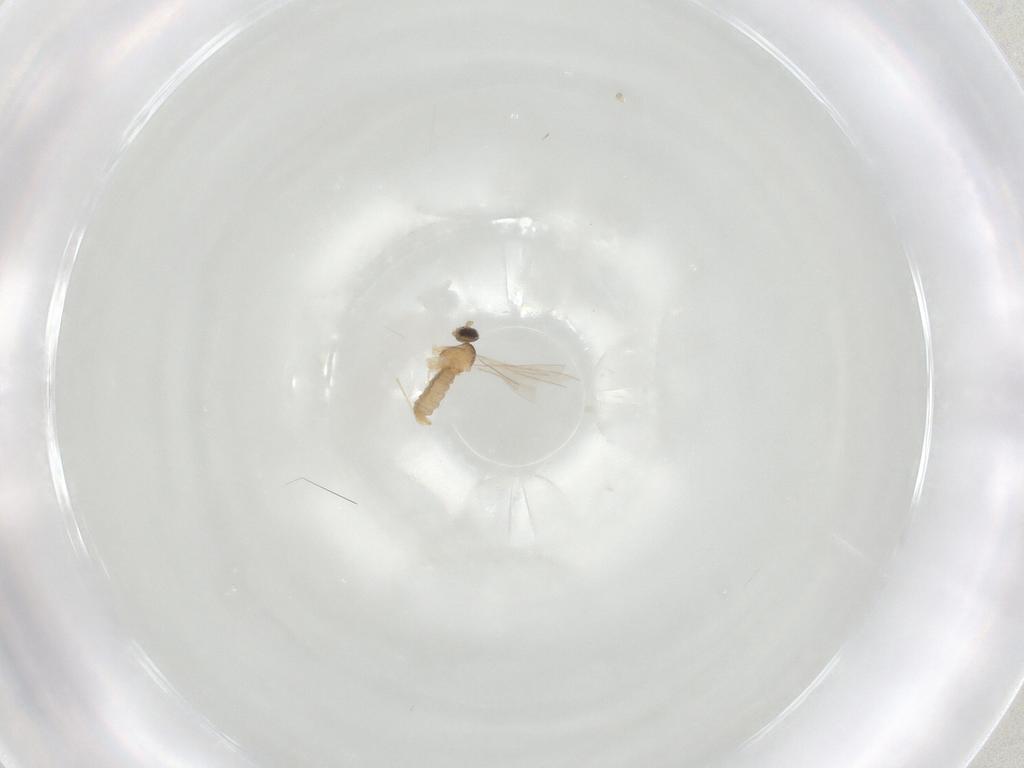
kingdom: Animalia
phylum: Arthropoda
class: Insecta
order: Diptera
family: Cecidomyiidae
